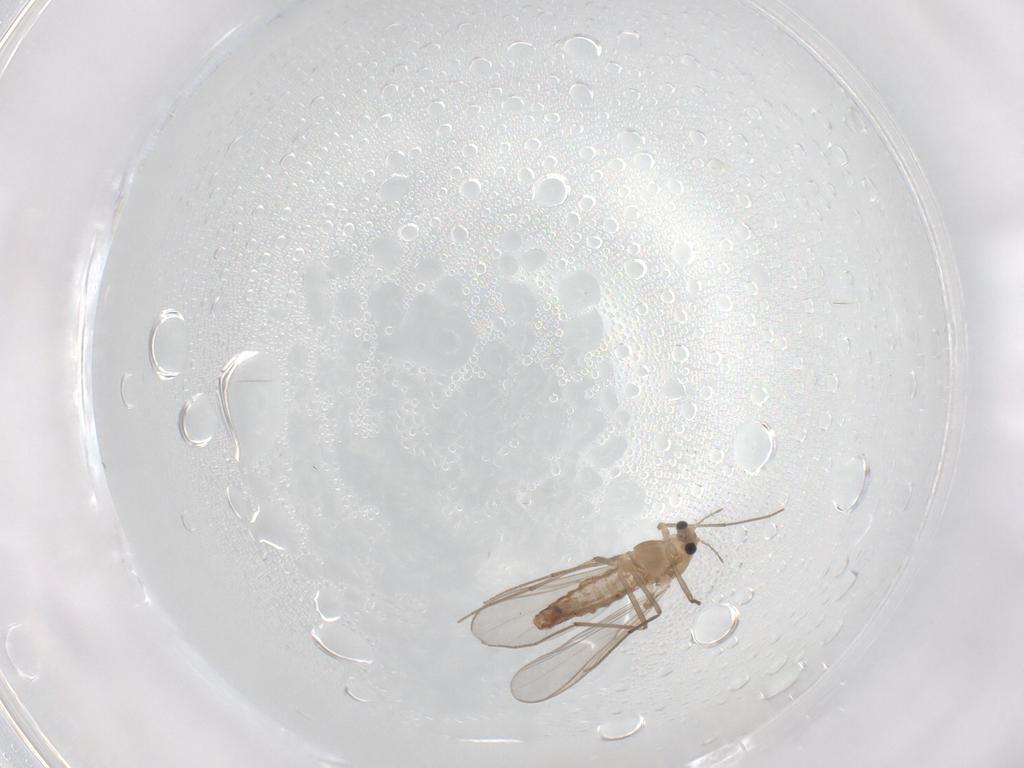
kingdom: Animalia
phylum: Arthropoda
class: Insecta
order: Diptera
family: Chironomidae
